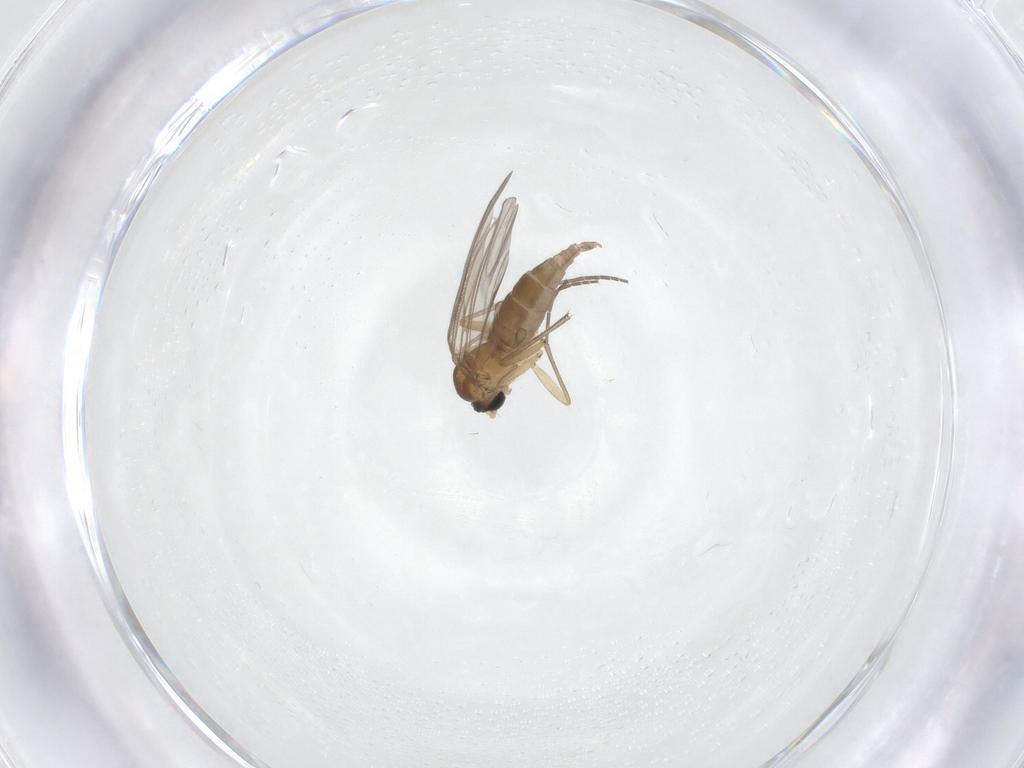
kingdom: Animalia
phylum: Arthropoda
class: Insecta
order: Diptera
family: Sciaridae
